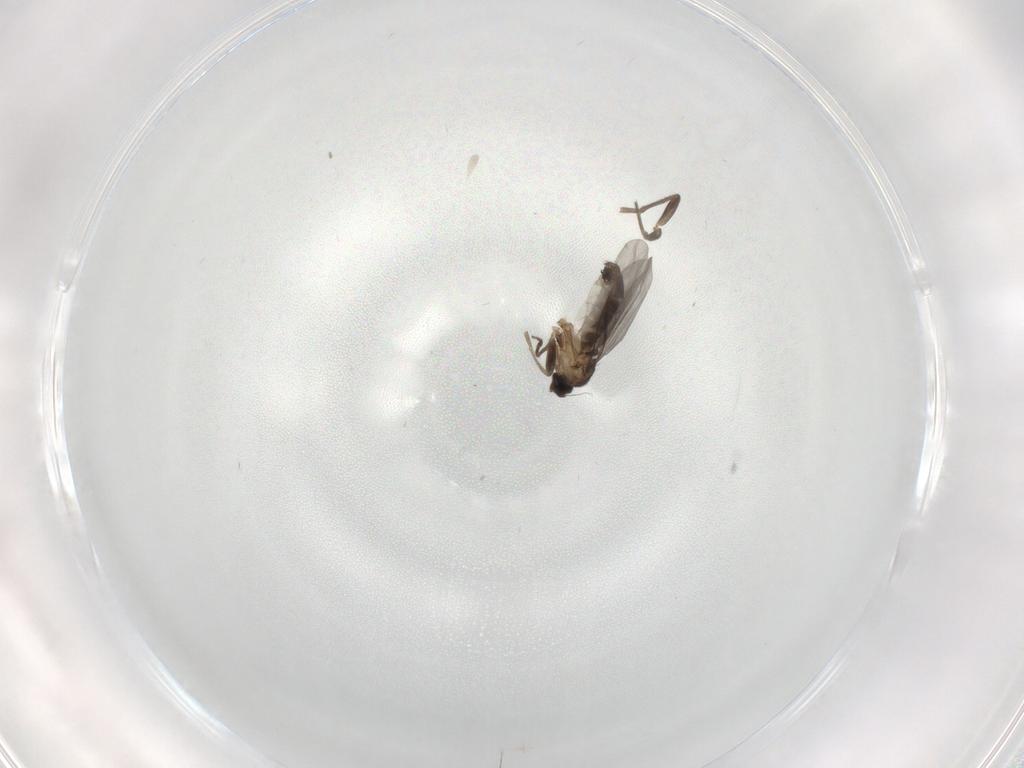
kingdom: Animalia
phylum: Arthropoda
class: Insecta
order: Diptera
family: Phoridae
